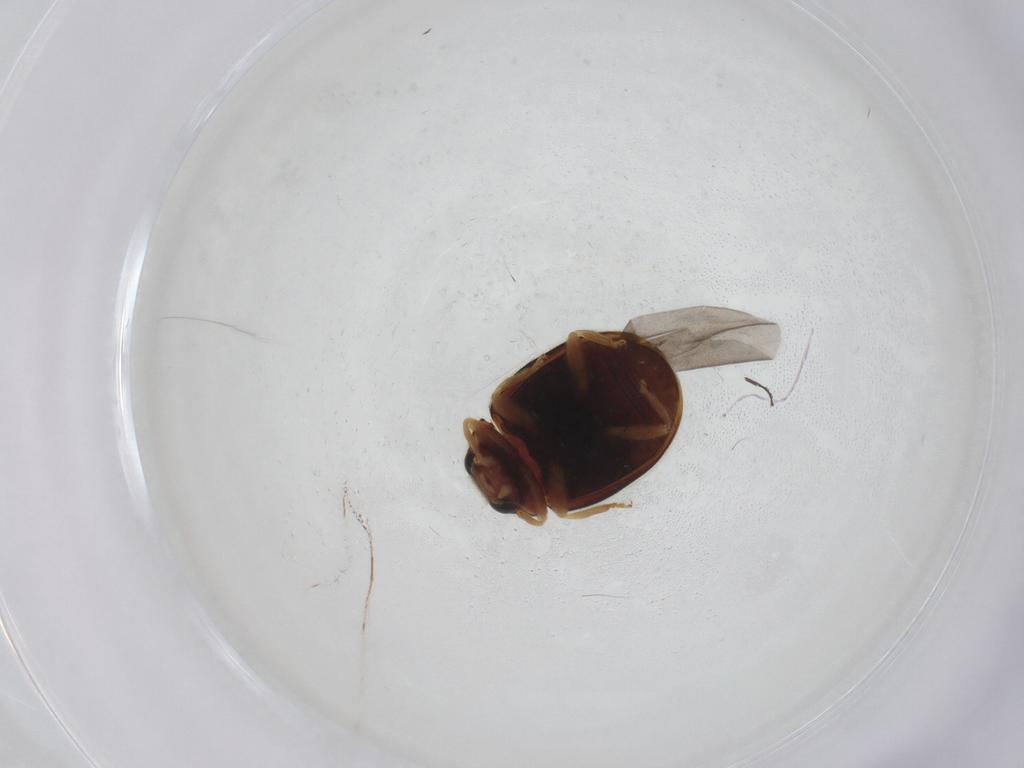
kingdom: Animalia
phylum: Arthropoda
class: Insecta
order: Coleoptera
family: Coccinellidae
